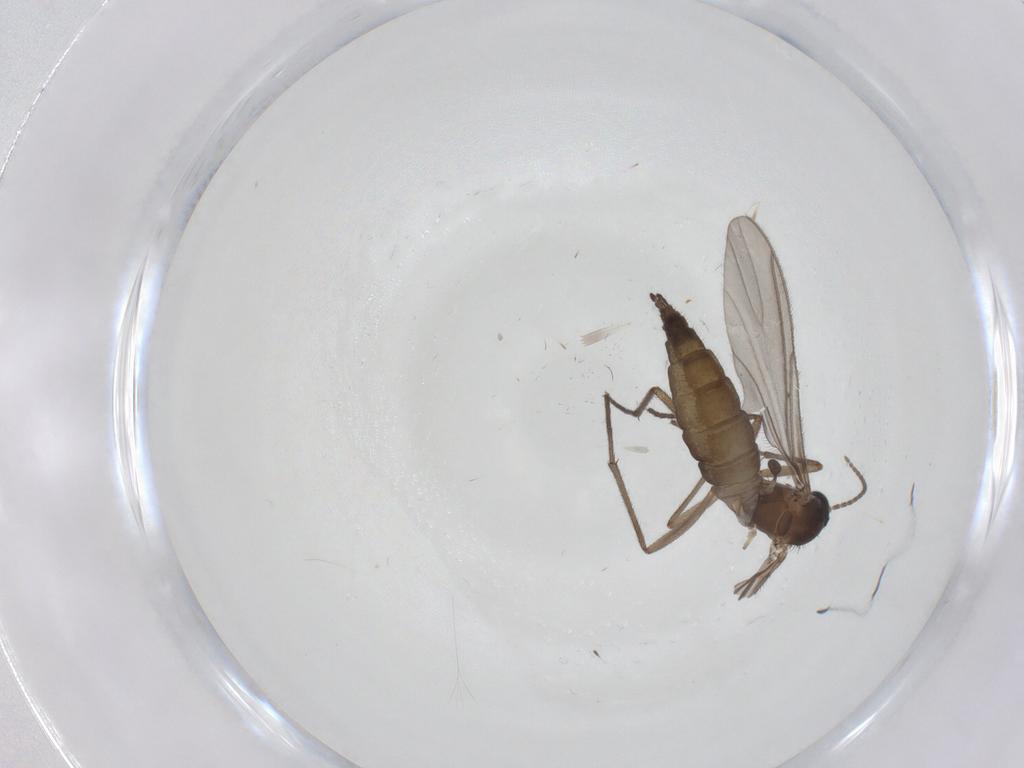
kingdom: Animalia
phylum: Arthropoda
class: Insecta
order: Diptera
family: Sciaridae
